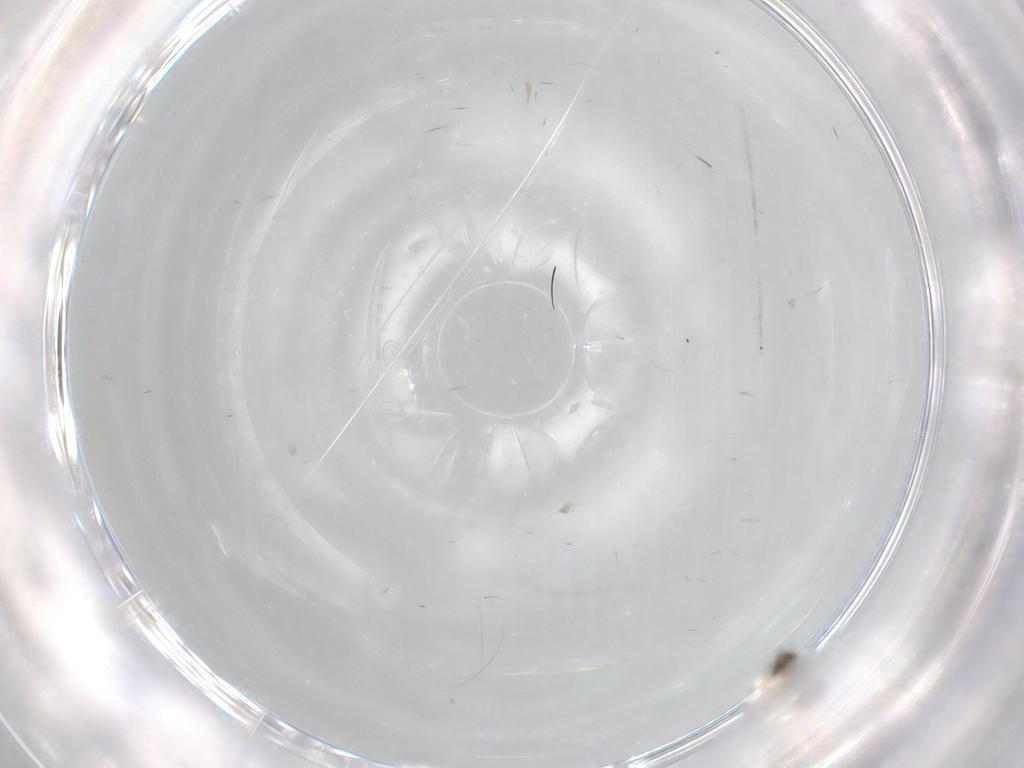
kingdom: Animalia
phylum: Arthropoda
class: Insecta
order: Hymenoptera
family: Encyrtidae
